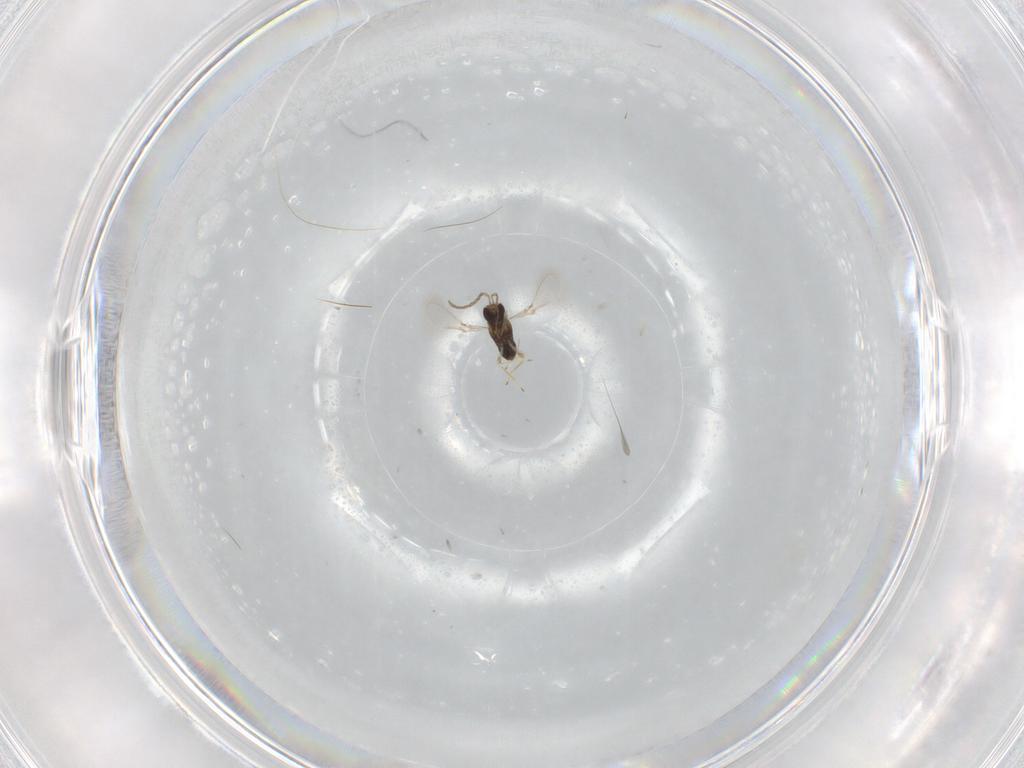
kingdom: Animalia
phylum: Arthropoda
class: Insecta
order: Hymenoptera
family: Mymaridae
